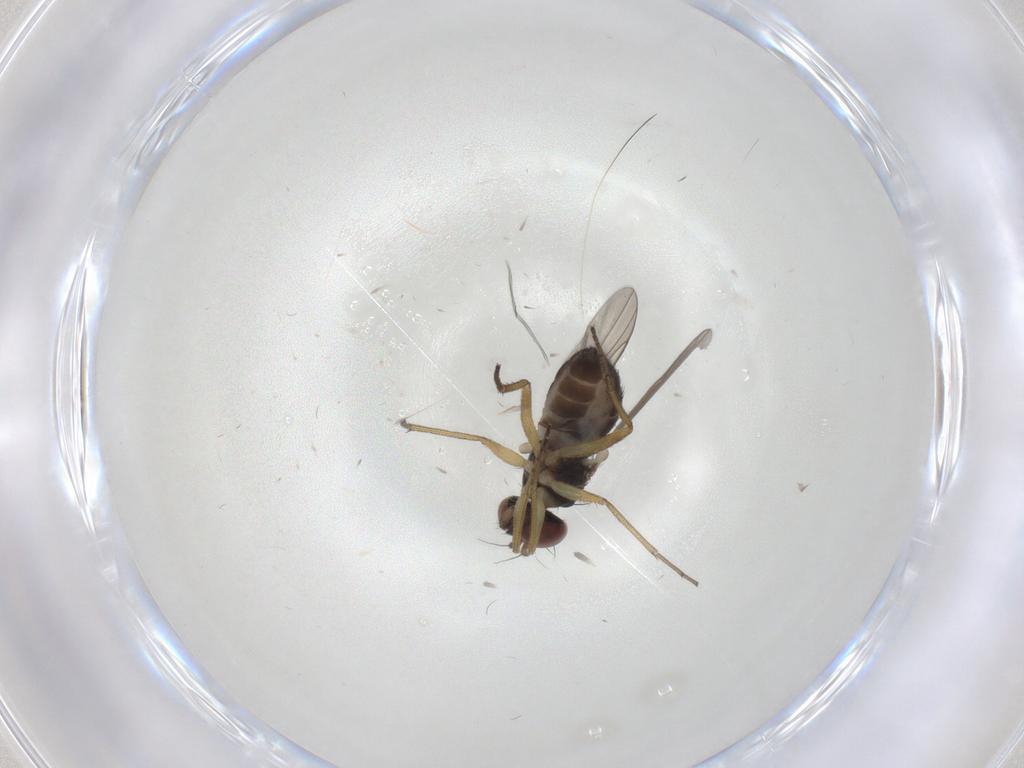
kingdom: Animalia
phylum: Arthropoda
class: Insecta
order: Diptera
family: Dolichopodidae
